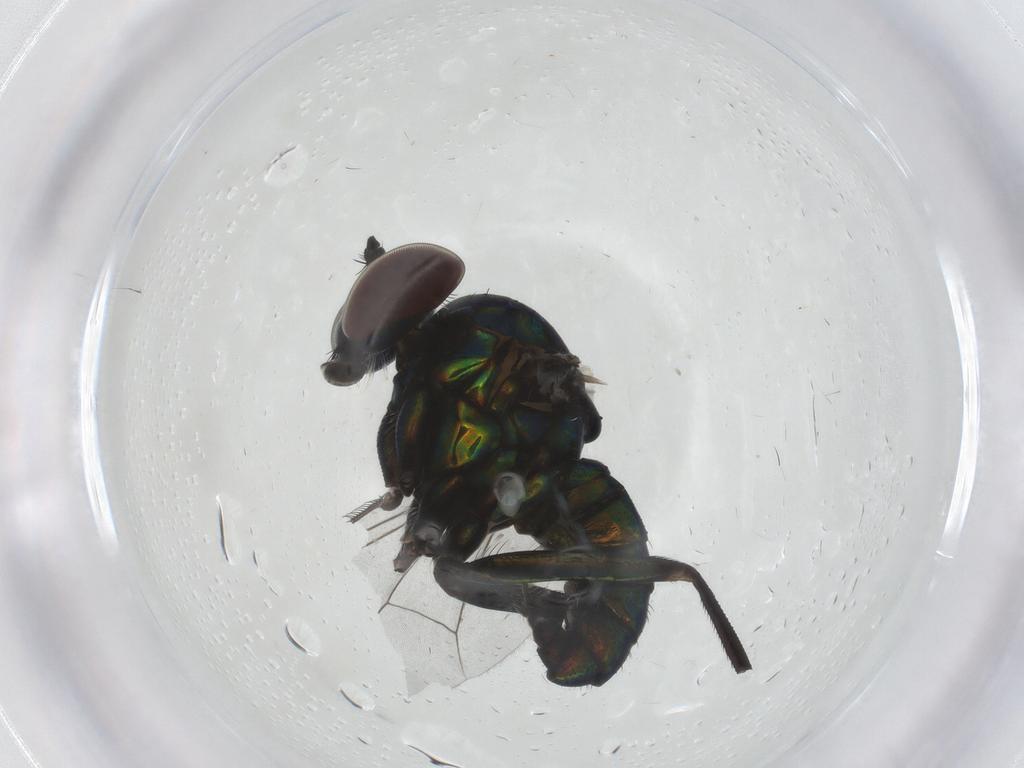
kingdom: Animalia
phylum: Arthropoda
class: Insecta
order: Diptera
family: Dolichopodidae
